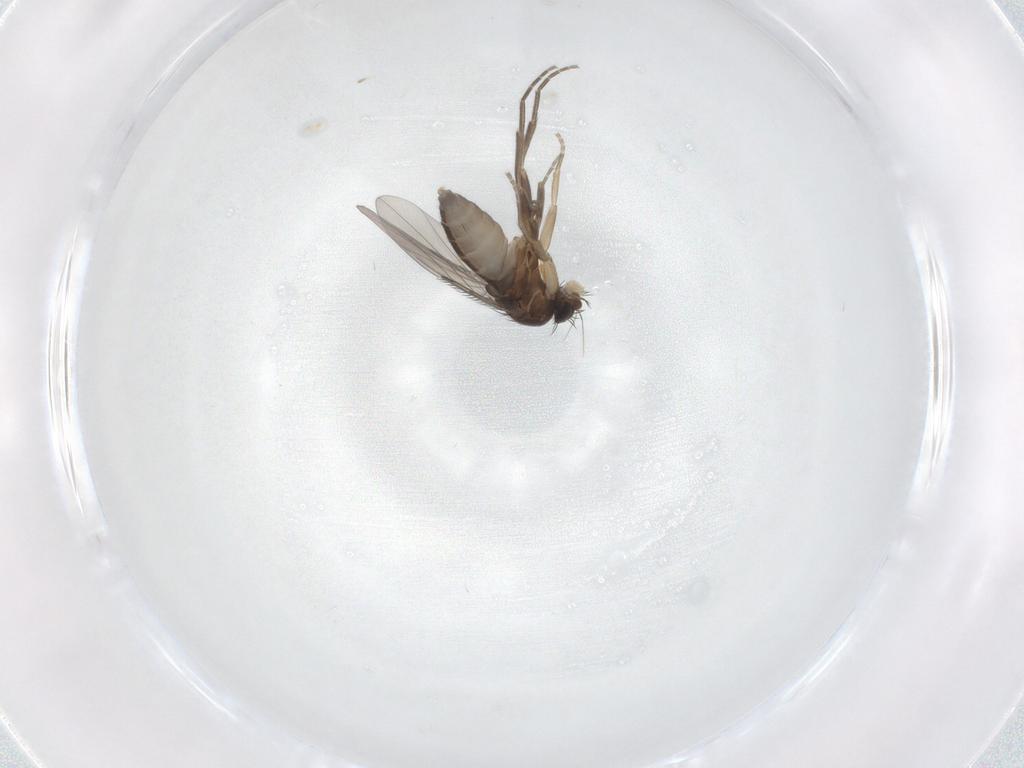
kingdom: Animalia
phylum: Arthropoda
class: Insecta
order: Diptera
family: Phoridae
